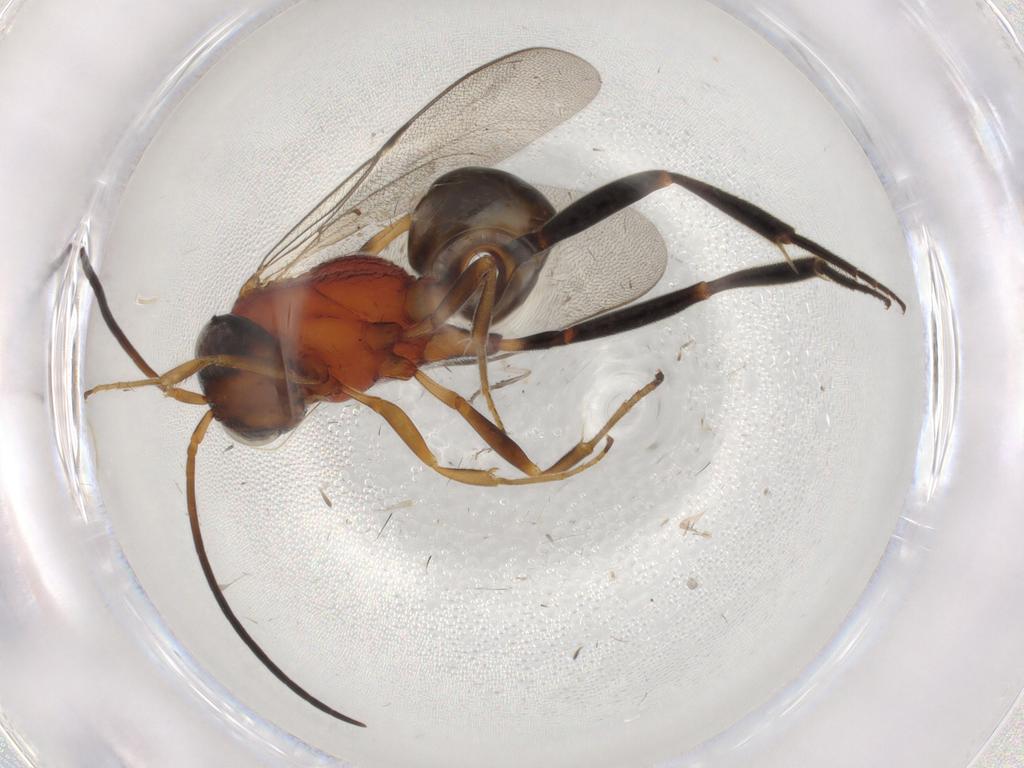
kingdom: Animalia
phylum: Arthropoda
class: Insecta
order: Hymenoptera
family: Evaniidae
